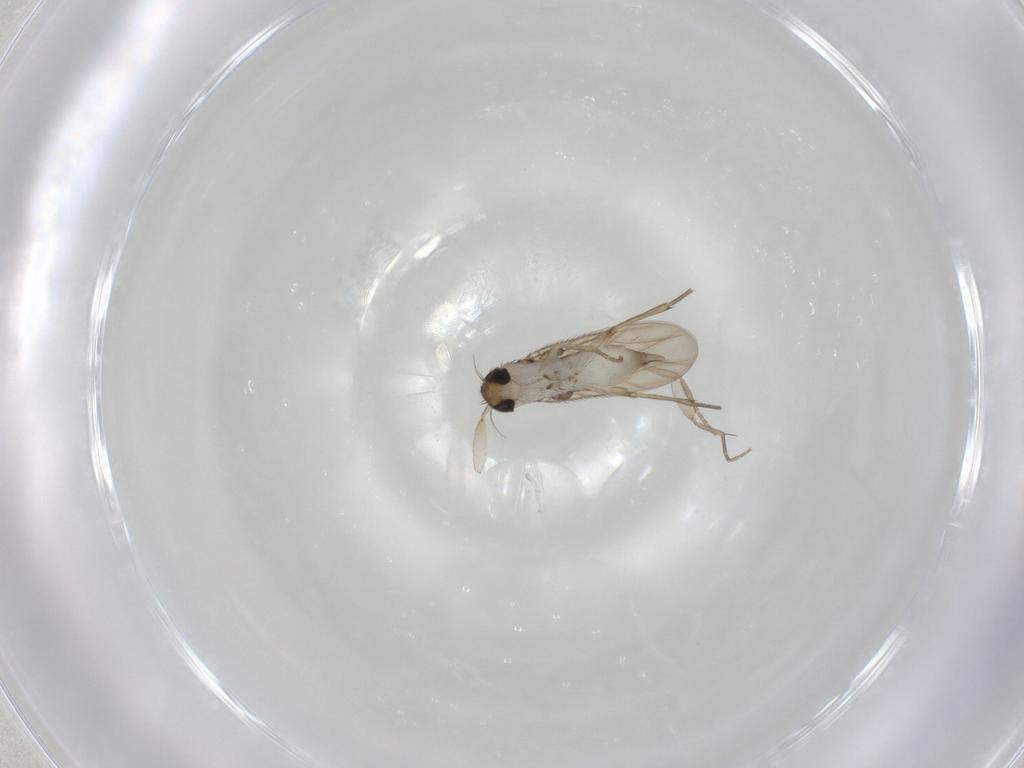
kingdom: Animalia
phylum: Arthropoda
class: Insecta
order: Diptera
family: Phoridae
